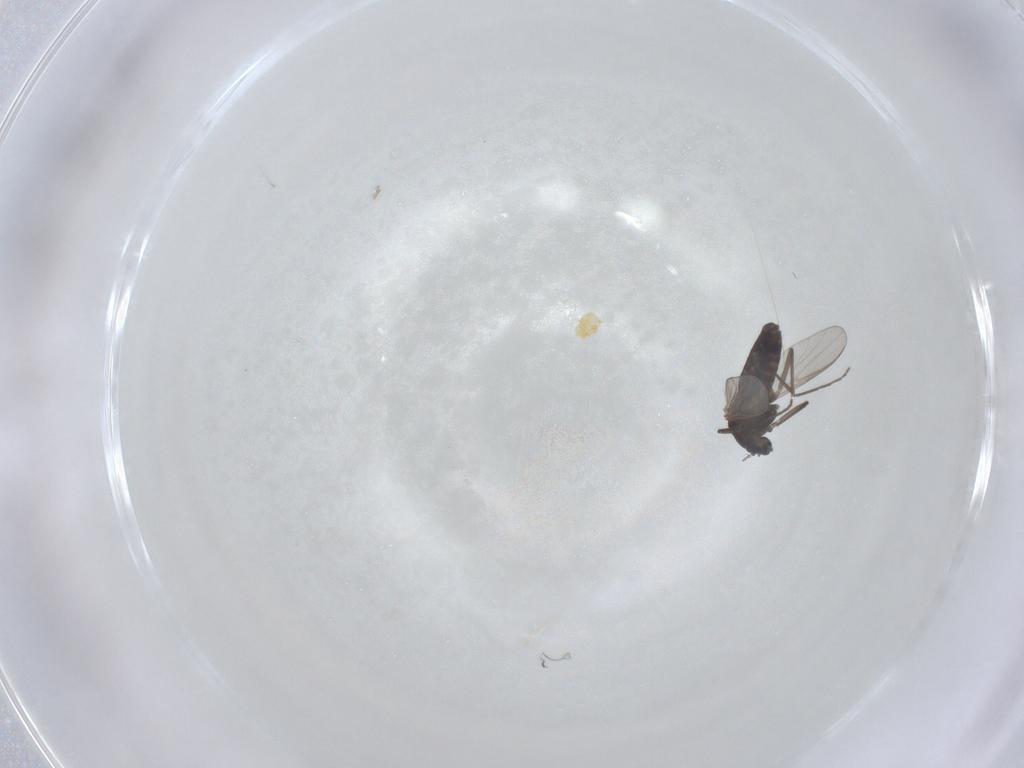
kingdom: Animalia
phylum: Arthropoda
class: Insecta
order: Diptera
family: Chironomidae
